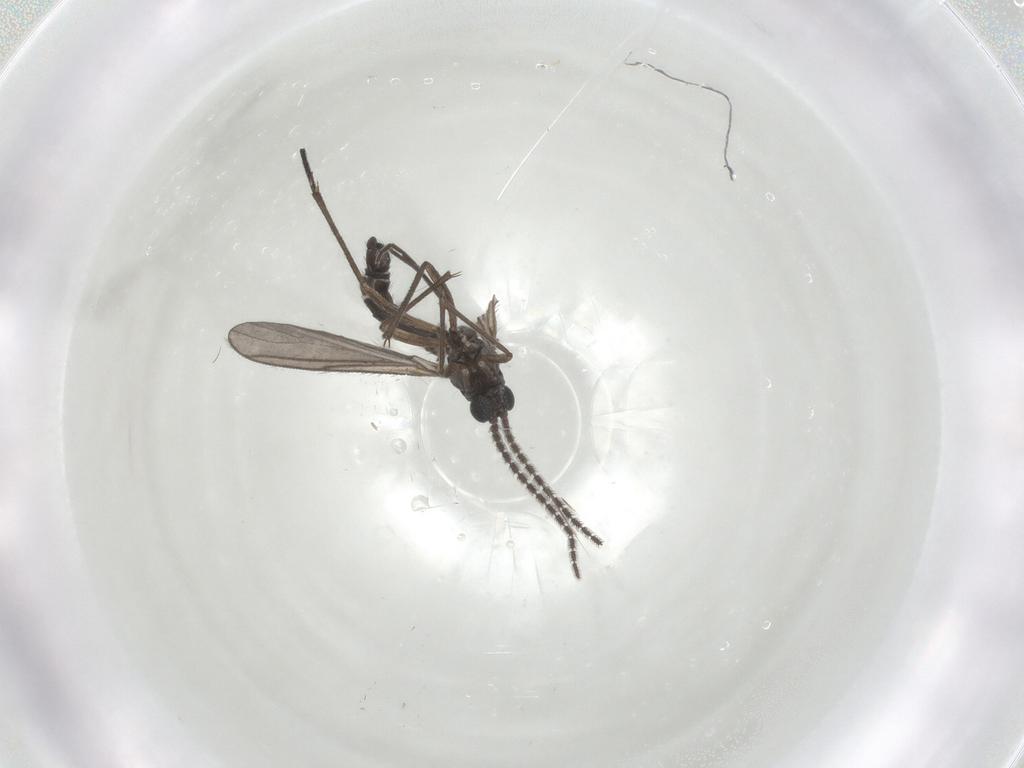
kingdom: Animalia
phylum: Arthropoda
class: Insecta
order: Diptera
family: Sciaridae
